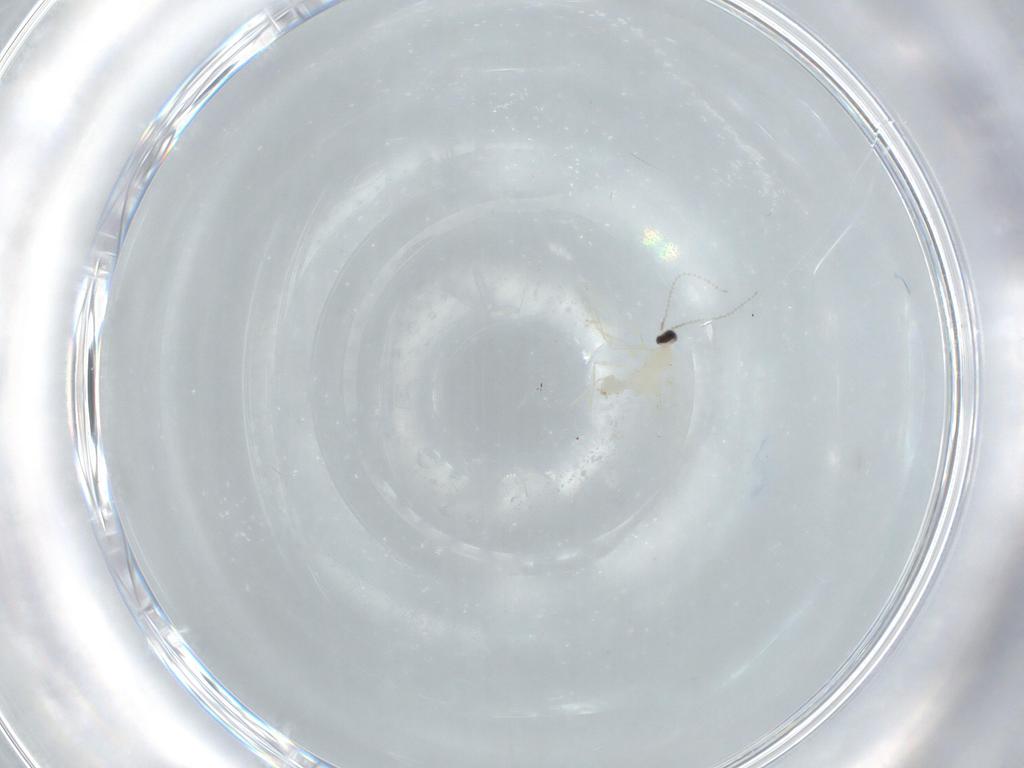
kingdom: Animalia
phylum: Arthropoda
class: Insecta
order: Diptera
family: Cecidomyiidae
